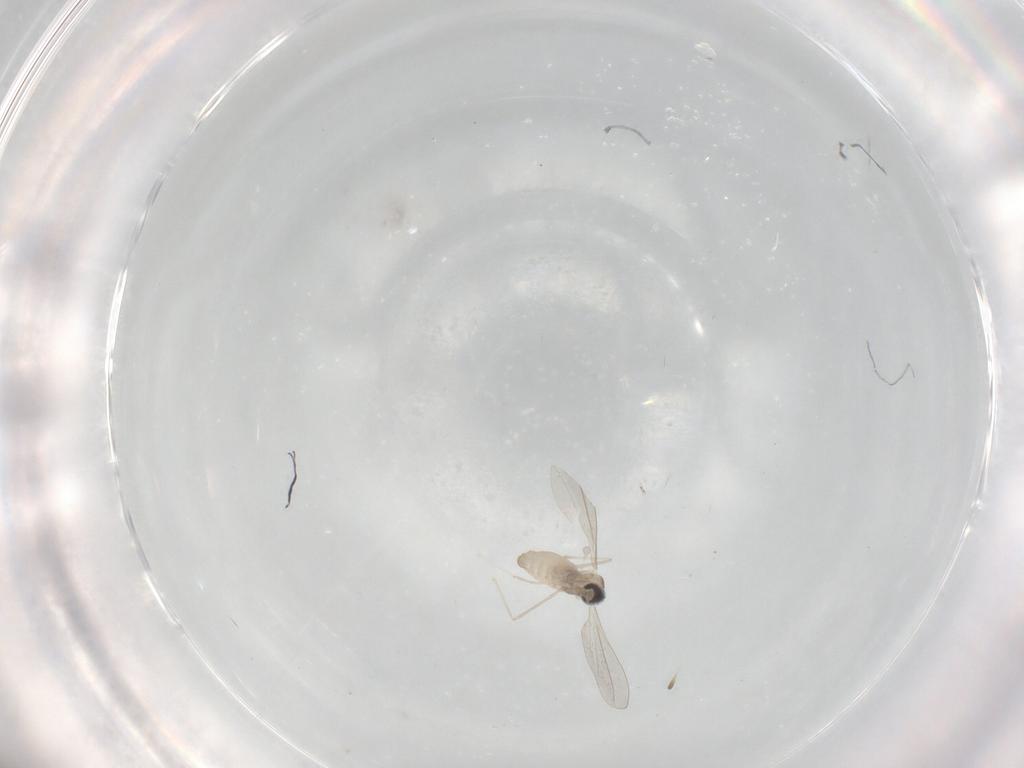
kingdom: Animalia
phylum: Arthropoda
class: Insecta
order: Diptera
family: Cecidomyiidae
